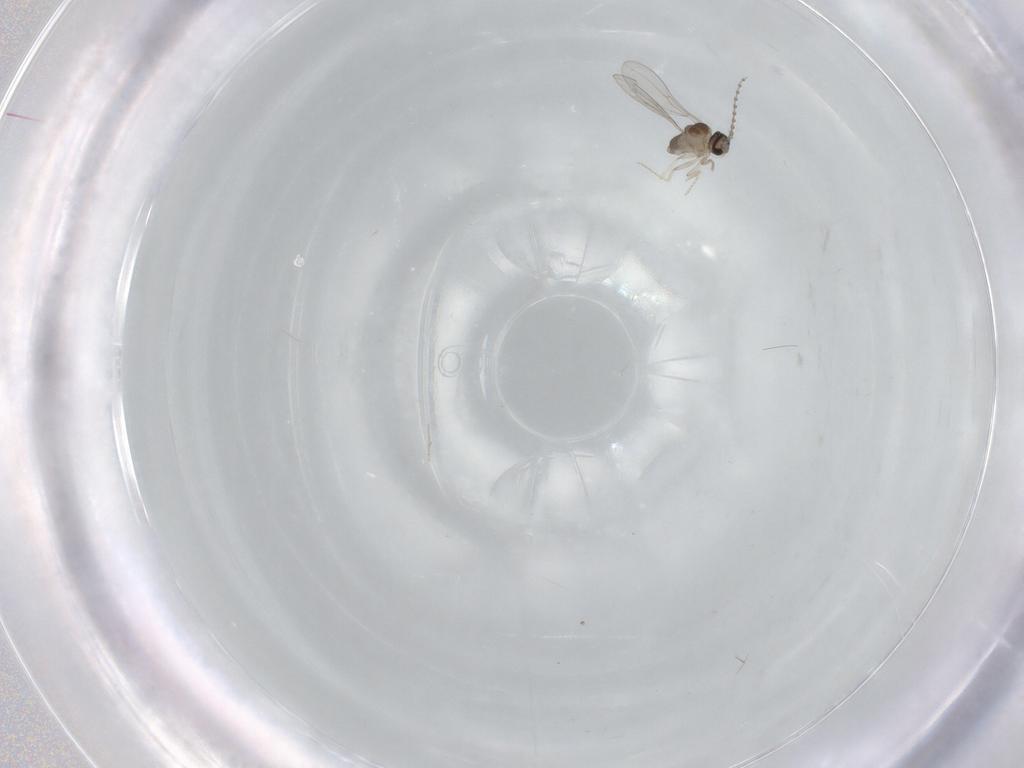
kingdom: Animalia
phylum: Arthropoda
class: Insecta
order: Diptera
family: Cecidomyiidae
